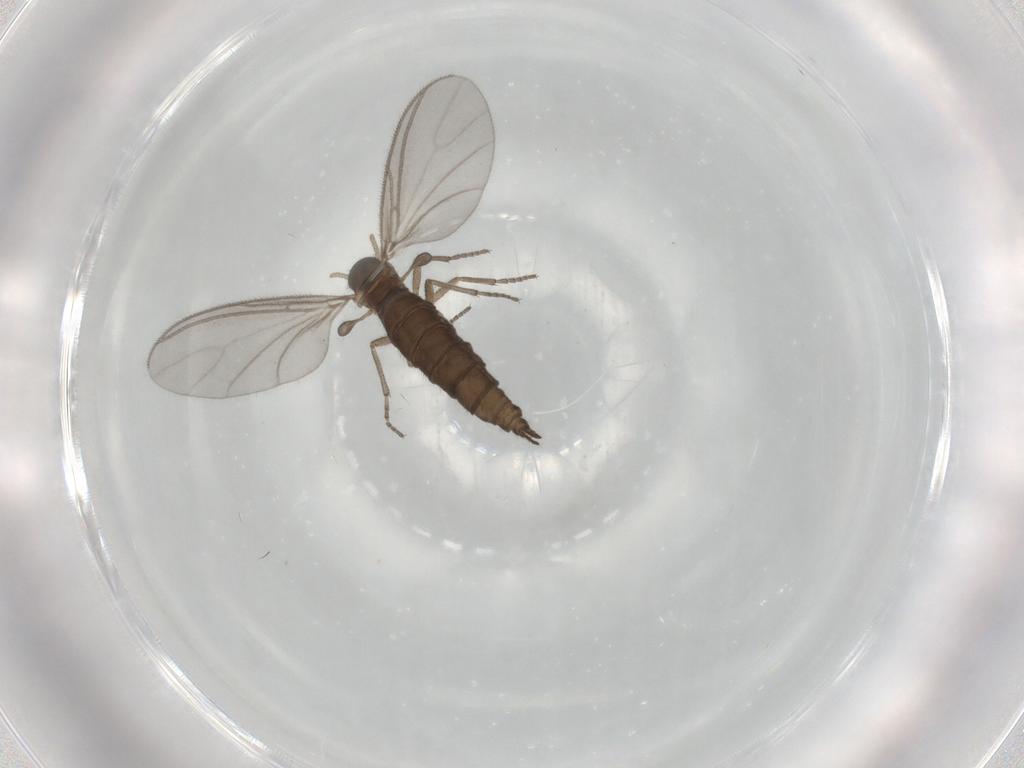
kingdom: Animalia
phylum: Arthropoda
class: Insecta
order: Diptera
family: Sciaridae
